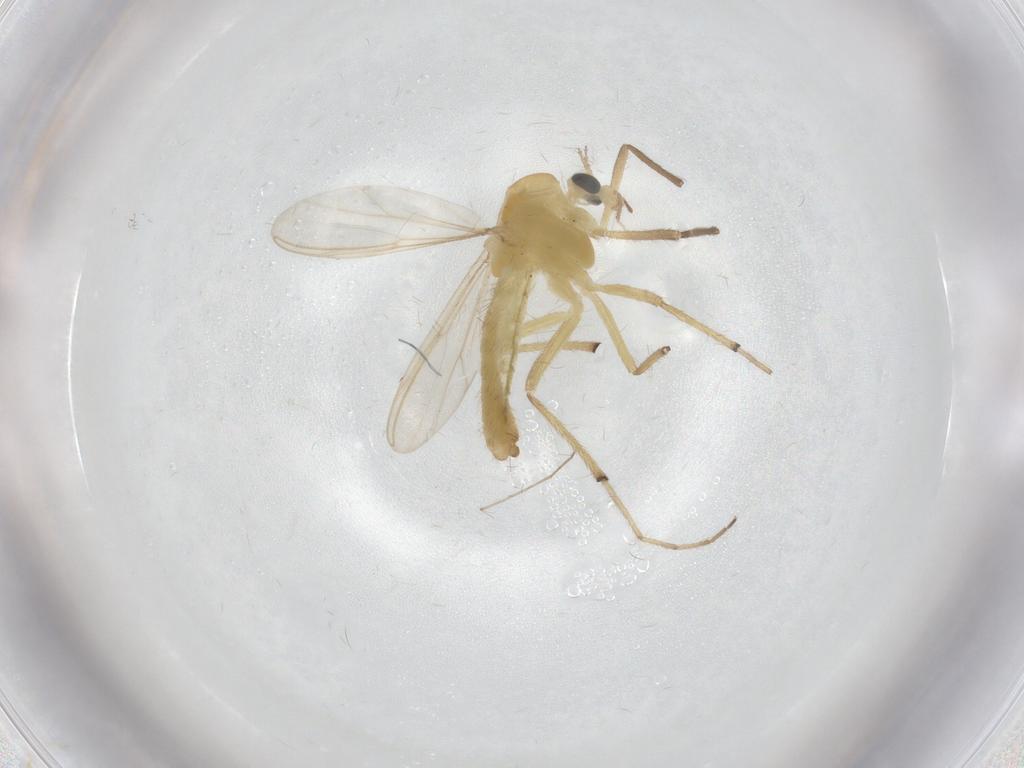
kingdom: Animalia
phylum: Arthropoda
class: Insecta
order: Diptera
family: Chironomidae
